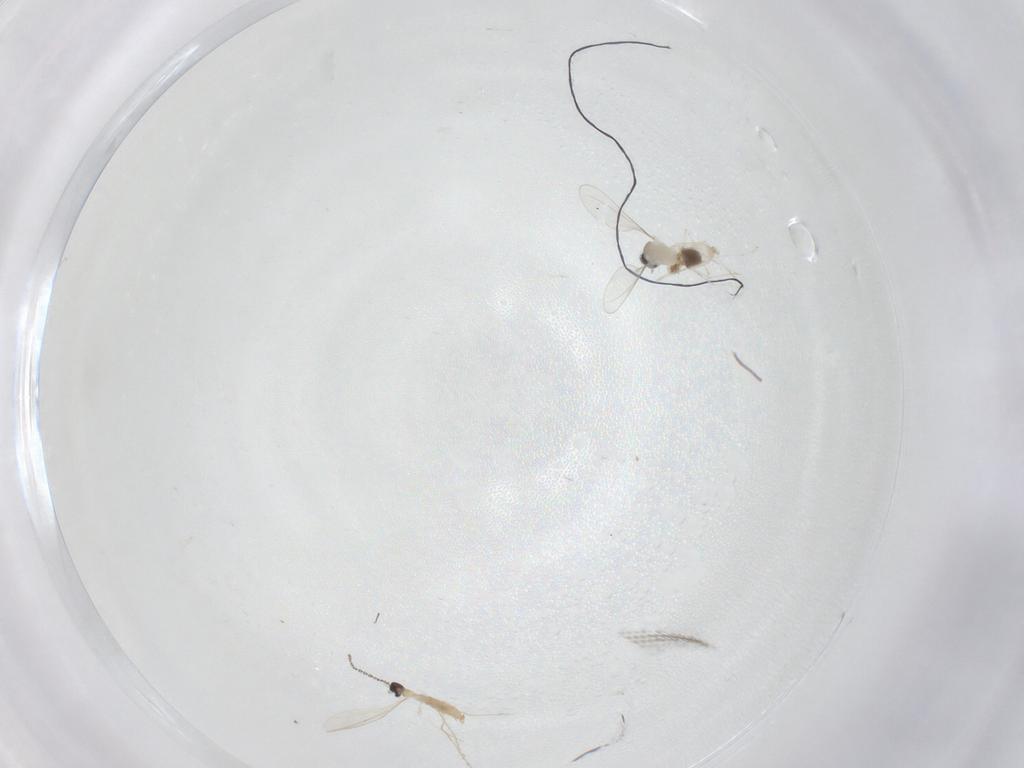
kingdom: Animalia
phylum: Arthropoda
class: Insecta
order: Diptera
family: Cecidomyiidae
